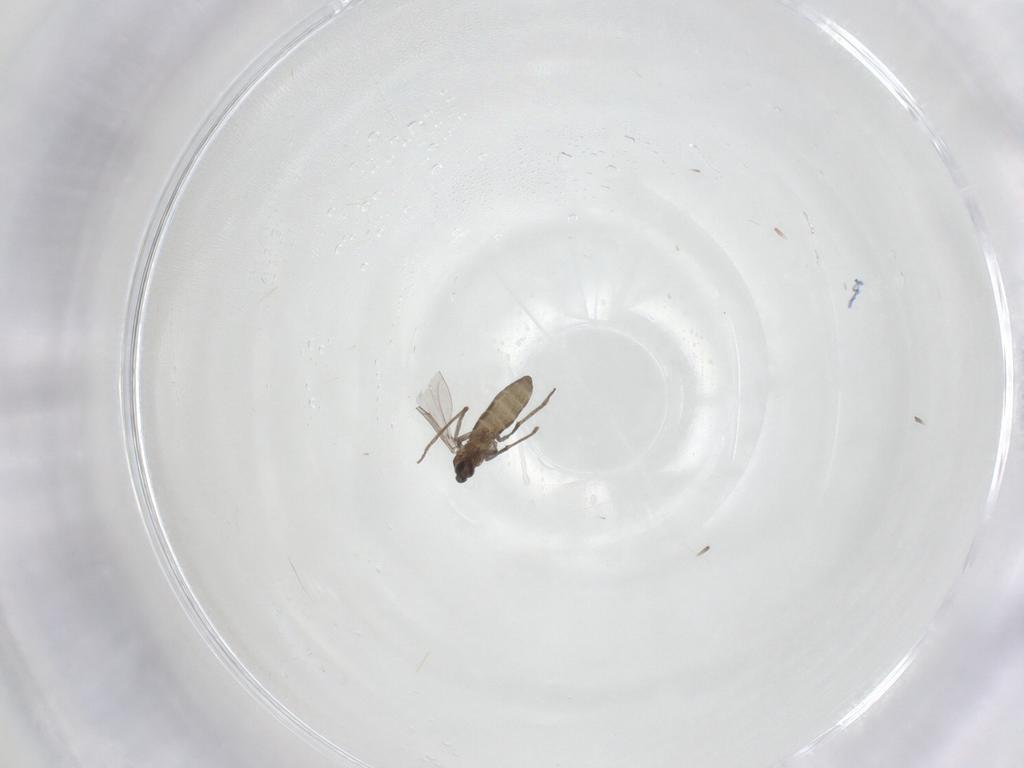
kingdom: Animalia
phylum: Arthropoda
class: Insecta
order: Diptera
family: Cecidomyiidae
